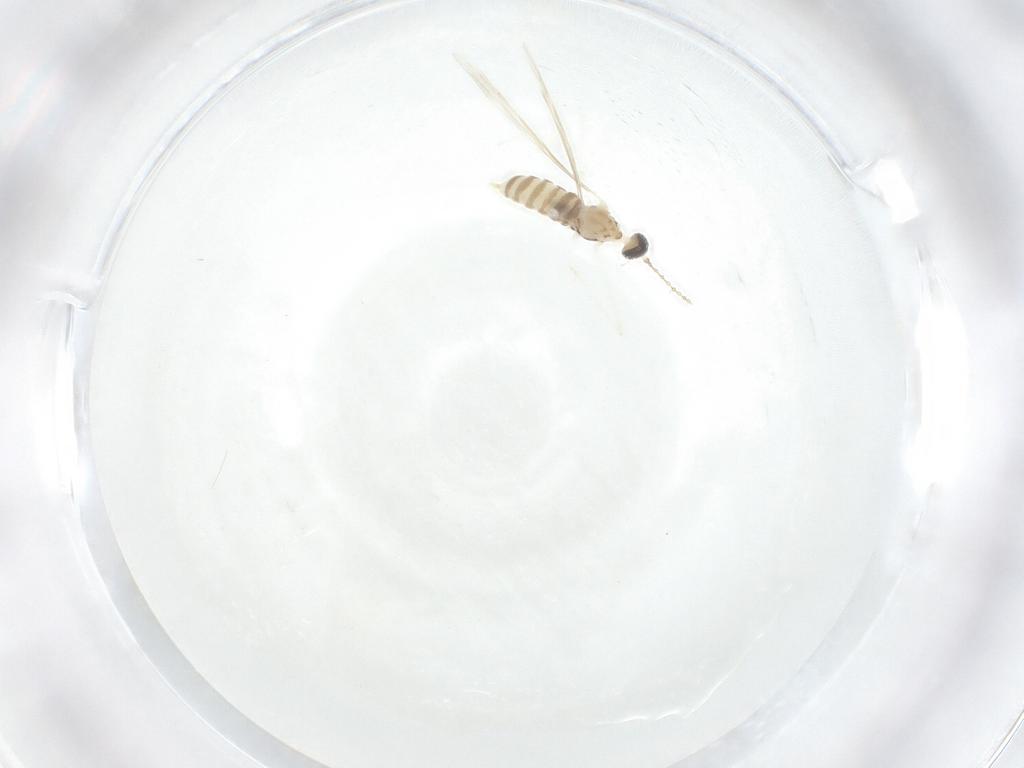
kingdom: Animalia
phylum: Arthropoda
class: Insecta
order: Diptera
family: Cecidomyiidae
